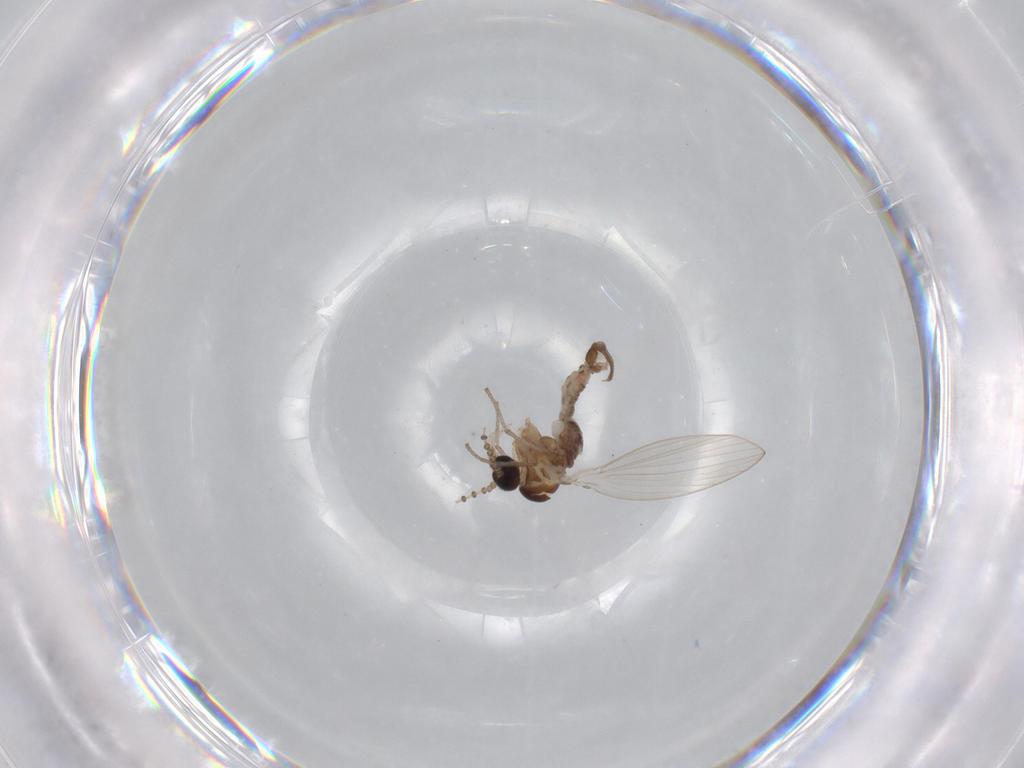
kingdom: Animalia
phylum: Arthropoda
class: Insecta
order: Diptera
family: Psychodidae
